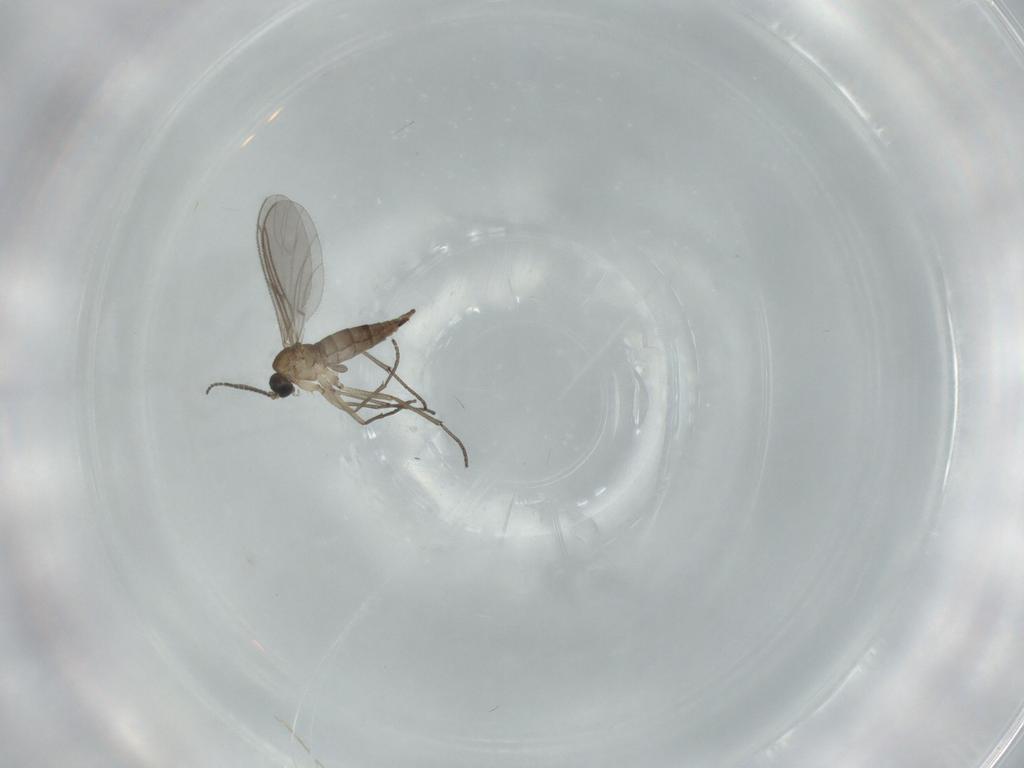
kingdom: Animalia
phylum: Arthropoda
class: Insecta
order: Diptera
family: Sciaridae
